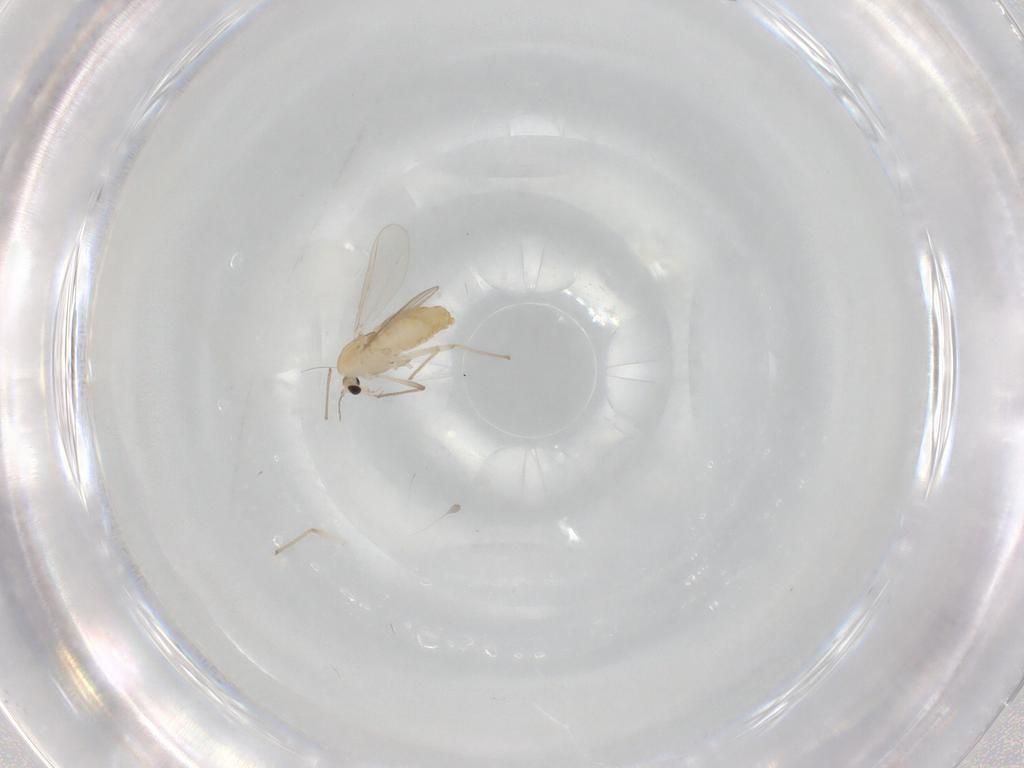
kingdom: Animalia
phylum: Arthropoda
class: Insecta
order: Diptera
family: Chironomidae
